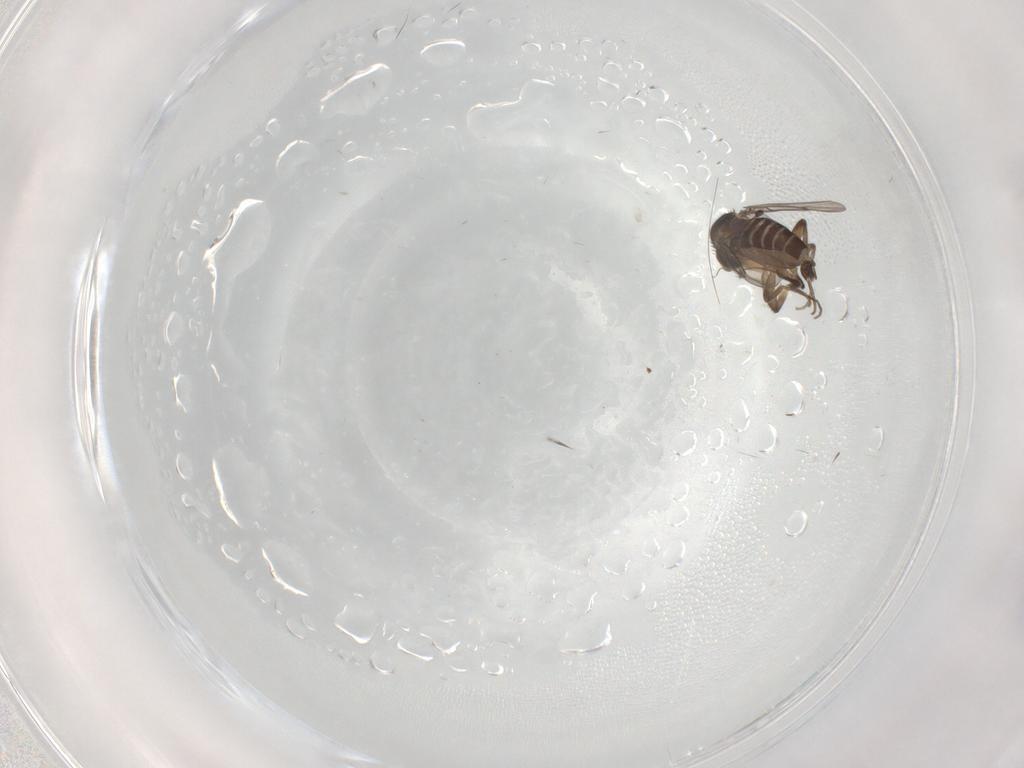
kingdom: Animalia
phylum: Arthropoda
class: Insecta
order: Diptera
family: Phoridae
